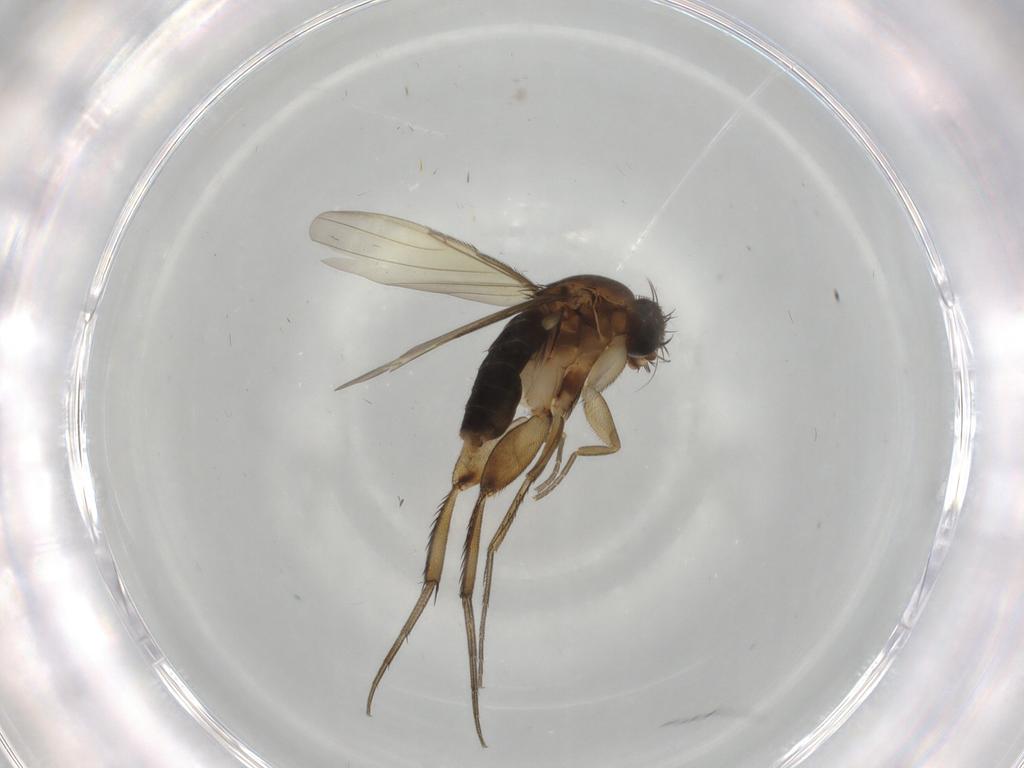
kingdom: Animalia
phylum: Arthropoda
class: Insecta
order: Diptera
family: Phoridae
